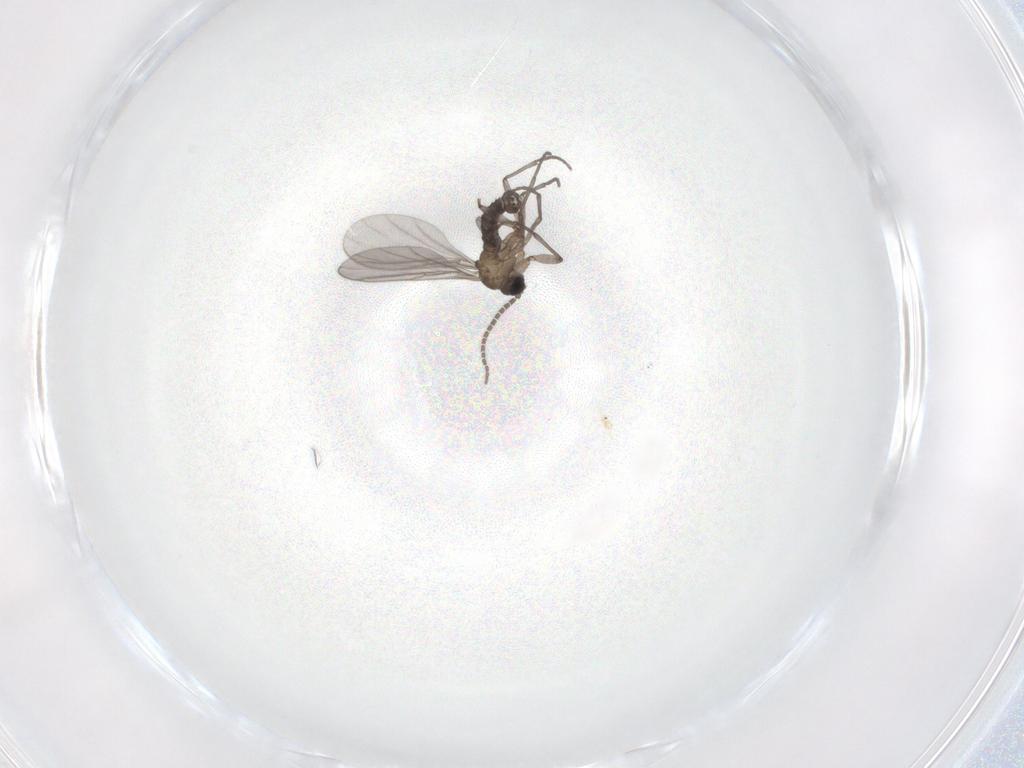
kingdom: Animalia
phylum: Arthropoda
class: Insecta
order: Diptera
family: Sciaridae
